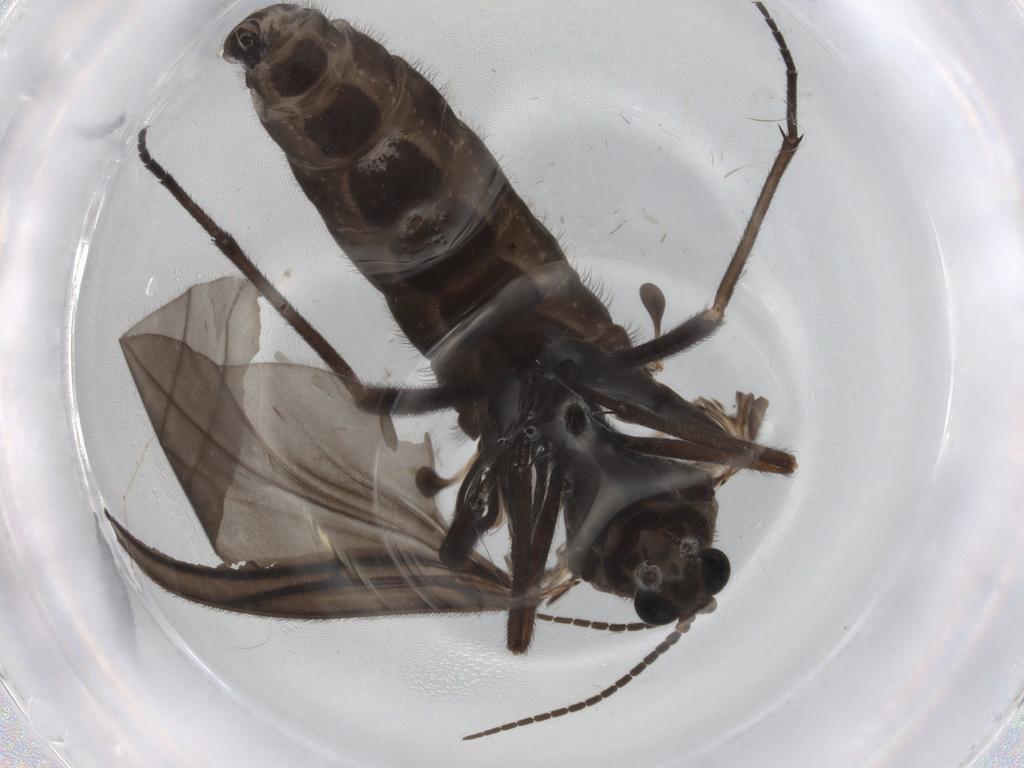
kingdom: Animalia
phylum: Arthropoda
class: Insecta
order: Diptera
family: Sciaridae
